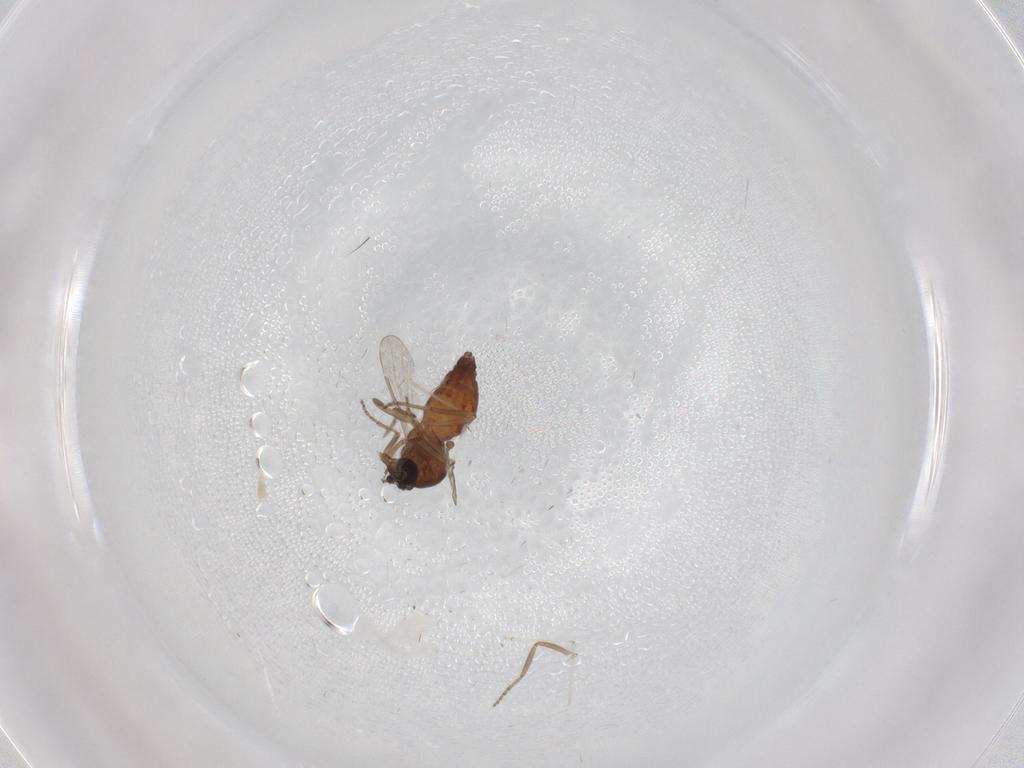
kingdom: Animalia
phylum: Arthropoda
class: Insecta
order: Diptera
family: Ceratopogonidae
